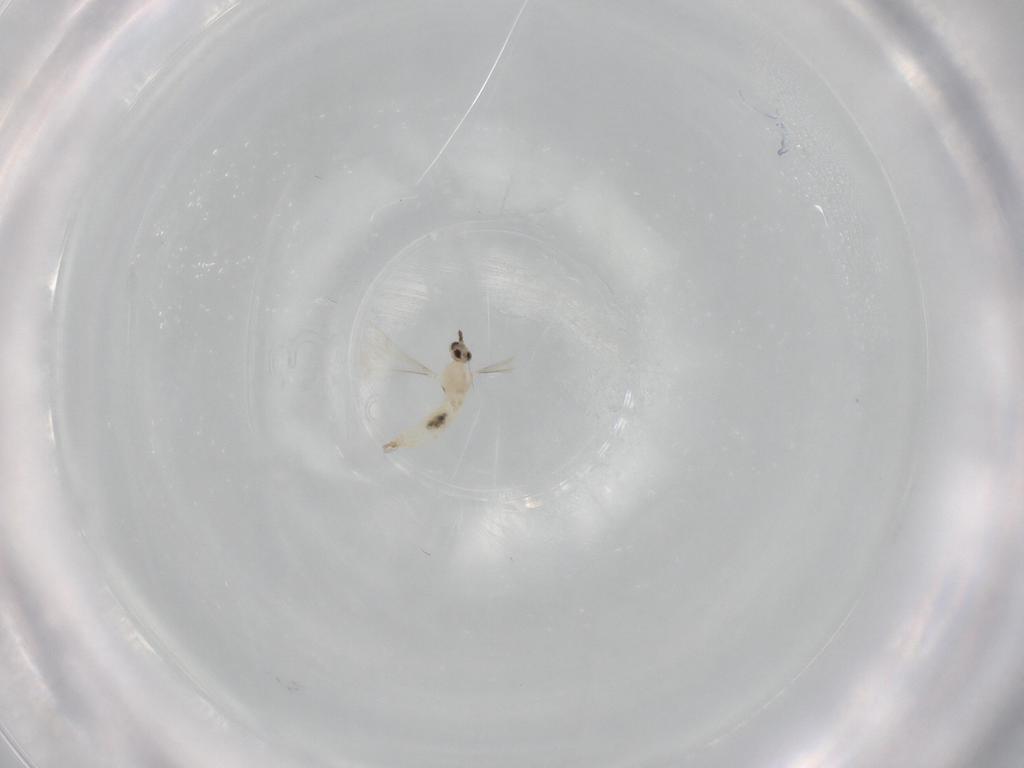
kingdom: Animalia
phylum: Arthropoda
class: Insecta
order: Diptera
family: Cecidomyiidae
